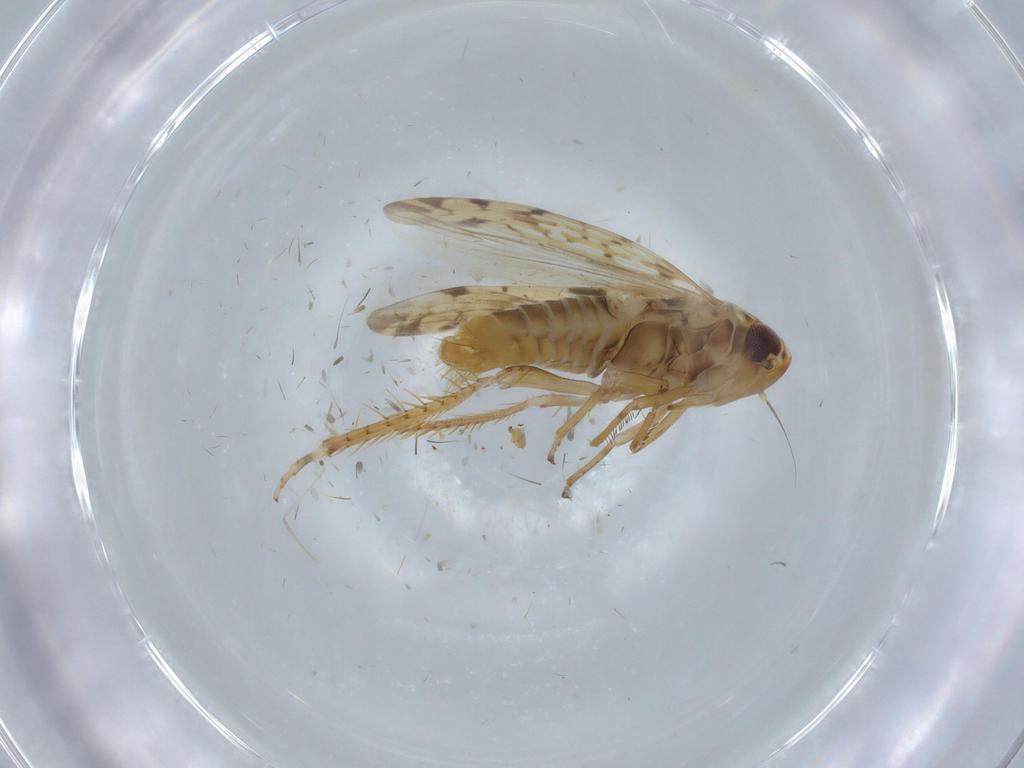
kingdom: Animalia
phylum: Arthropoda
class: Insecta
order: Hemiptera
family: Cicadellidae
